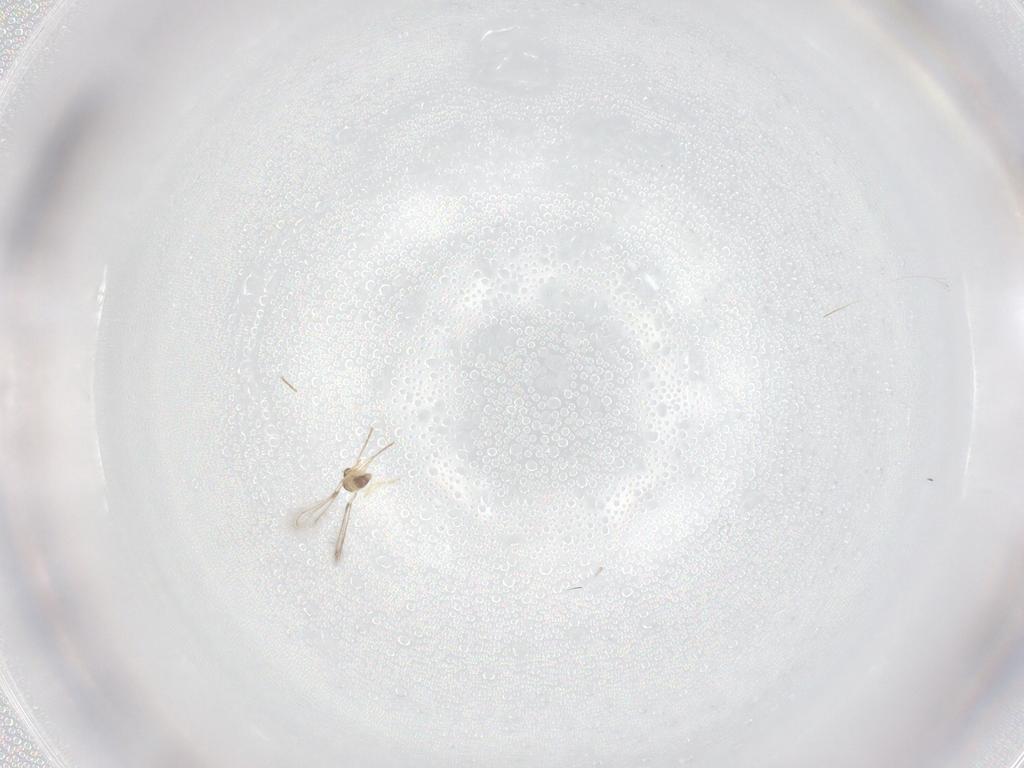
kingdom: Animalia
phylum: Arthropoda
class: Insecta
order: Hymenoptera
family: Mymaridae
